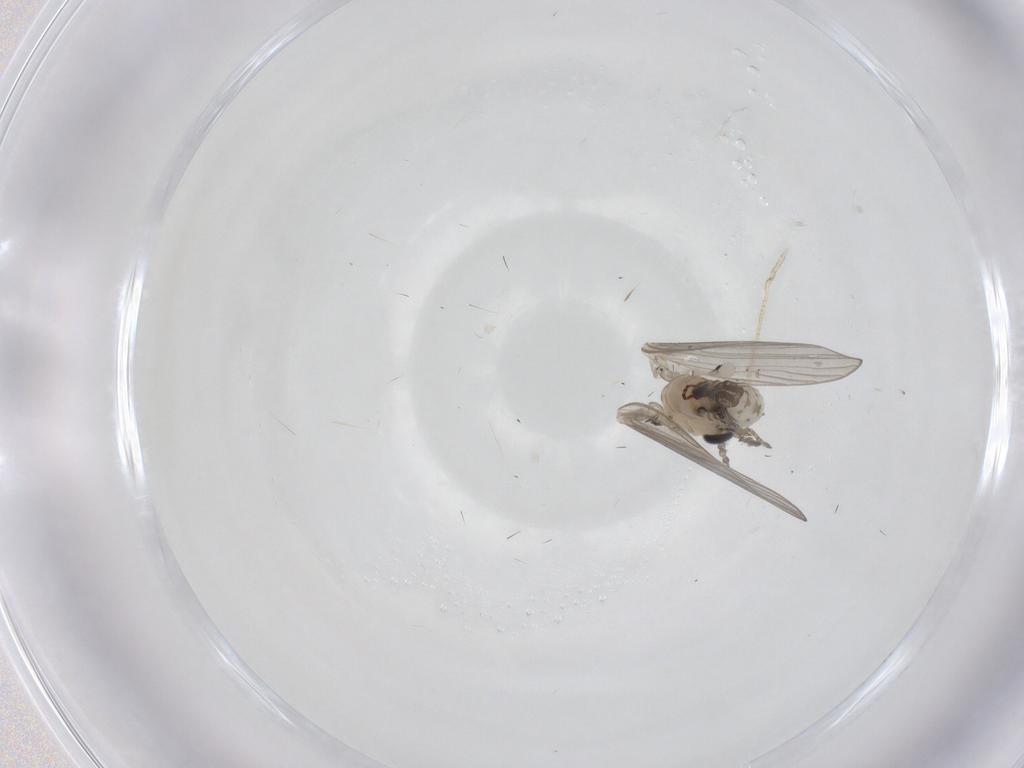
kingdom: Animalia
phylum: Arthropoda
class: Insecta
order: Diptera
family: Psychodidae
